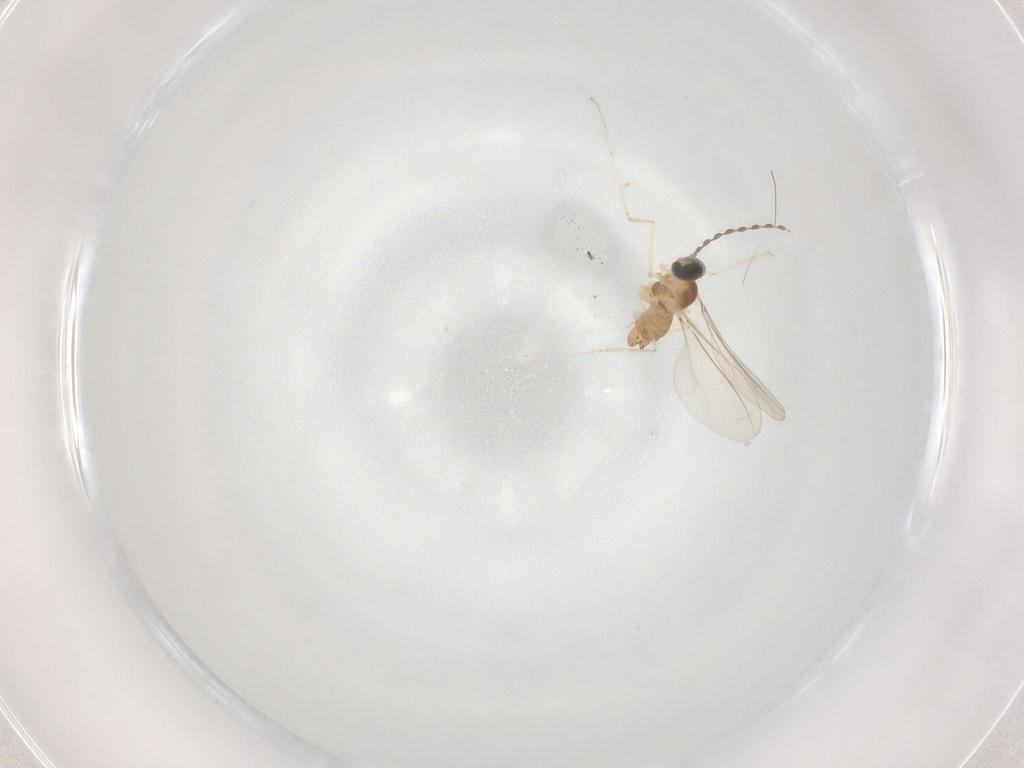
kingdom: Animalia
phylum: Arthropoda
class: Insecta
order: Diptera
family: Cecidomyiidae
